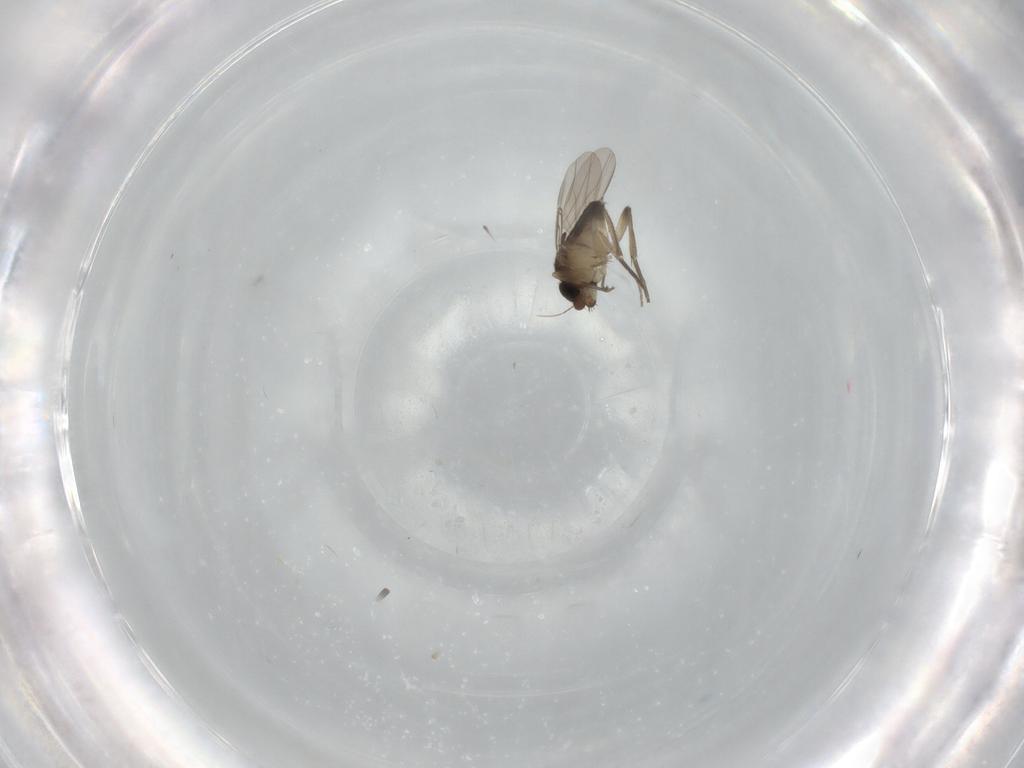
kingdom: Animalia
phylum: Arthropoda
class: Insecta
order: Diptera
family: Phoridae
